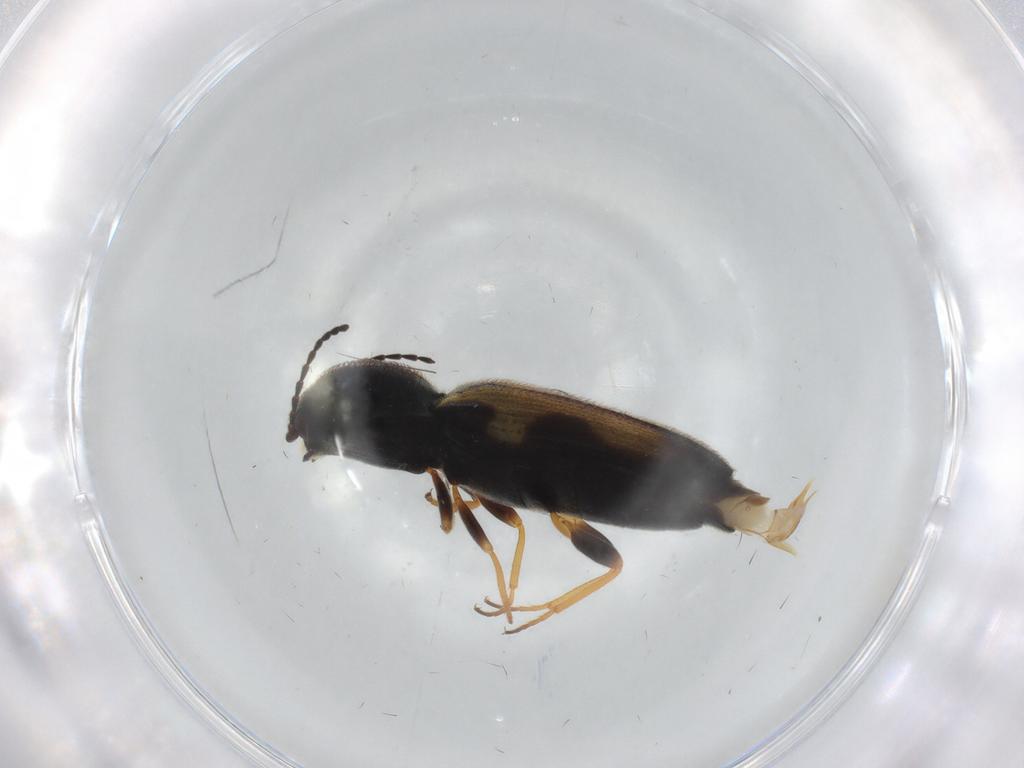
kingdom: Animalia
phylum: Arthropoda
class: Insecta
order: Coleoptera
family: Elateridae
